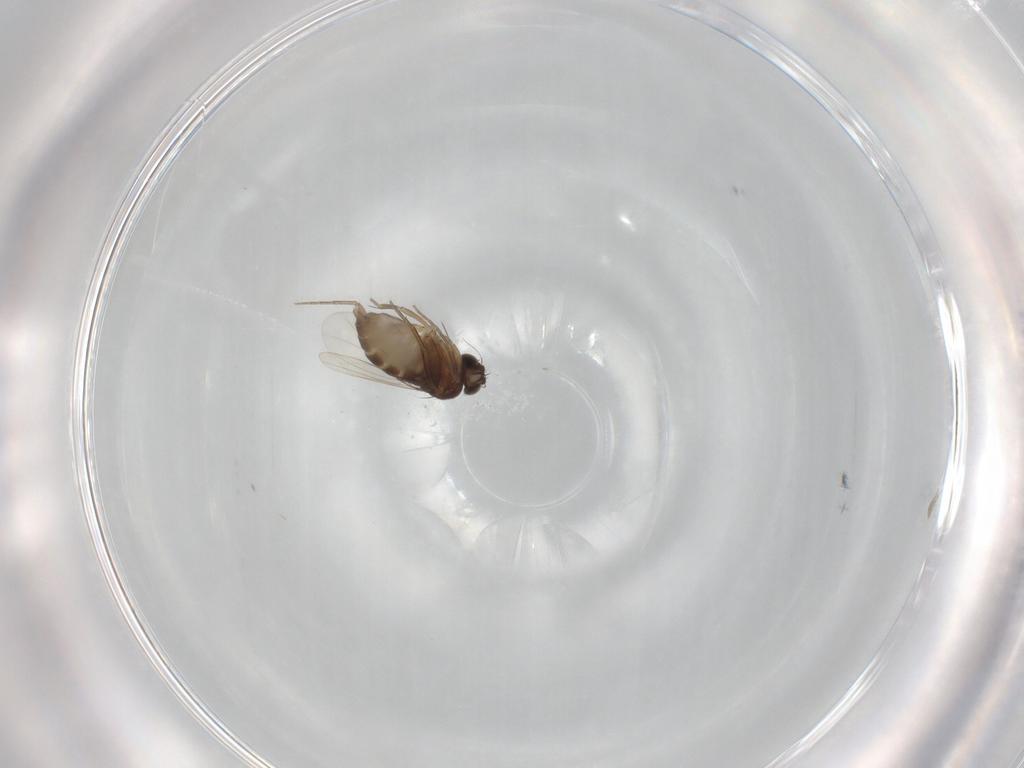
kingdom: Animalia
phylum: Arthropoda
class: Insecta
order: Diptera
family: Phoridae
